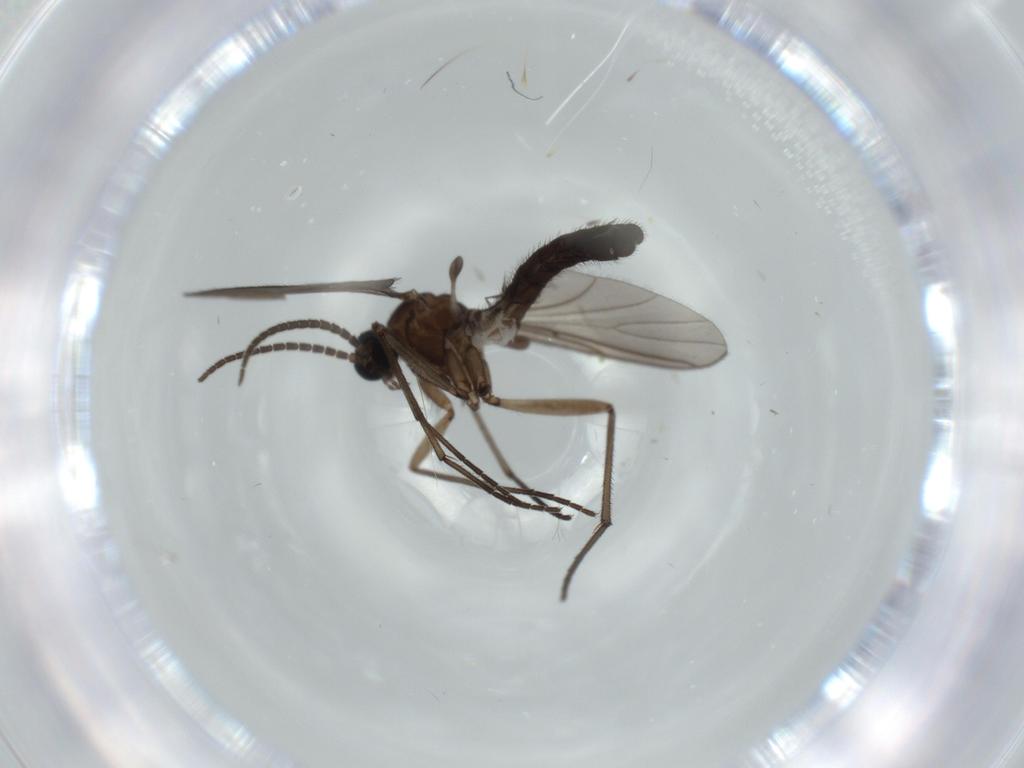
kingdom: Animalia
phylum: Arthropoda
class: Insecta
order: Diptera
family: Sciaridae
